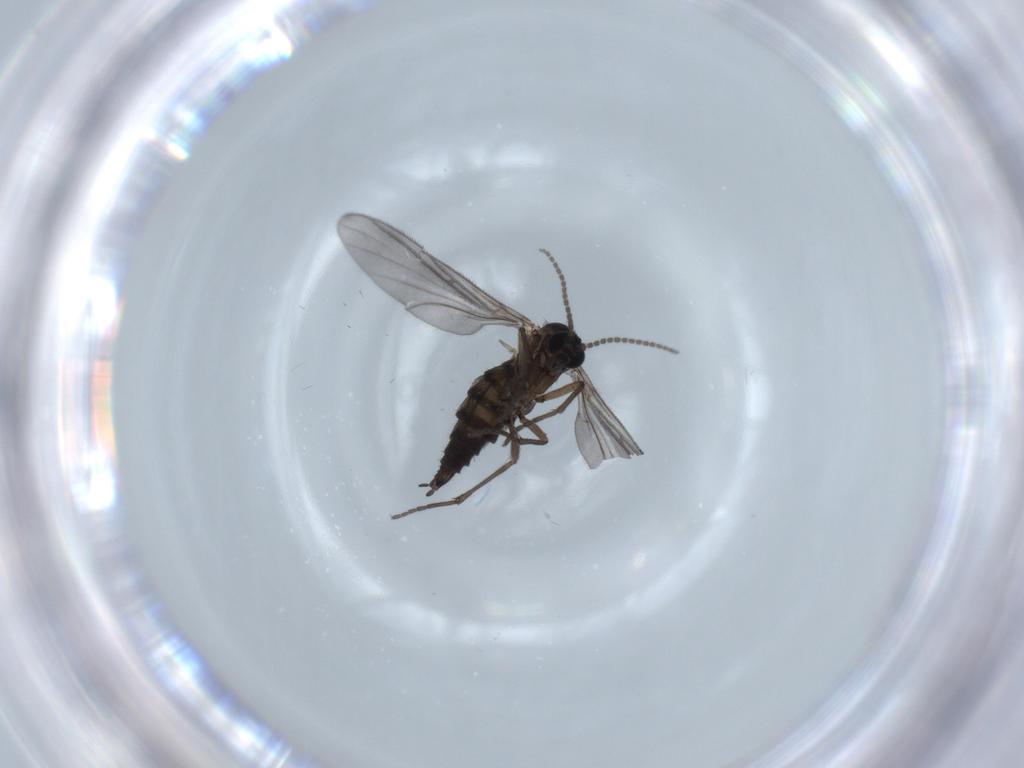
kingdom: Animalia
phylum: Arthropoda
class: Insecta
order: Diptera
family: Sciaridae
